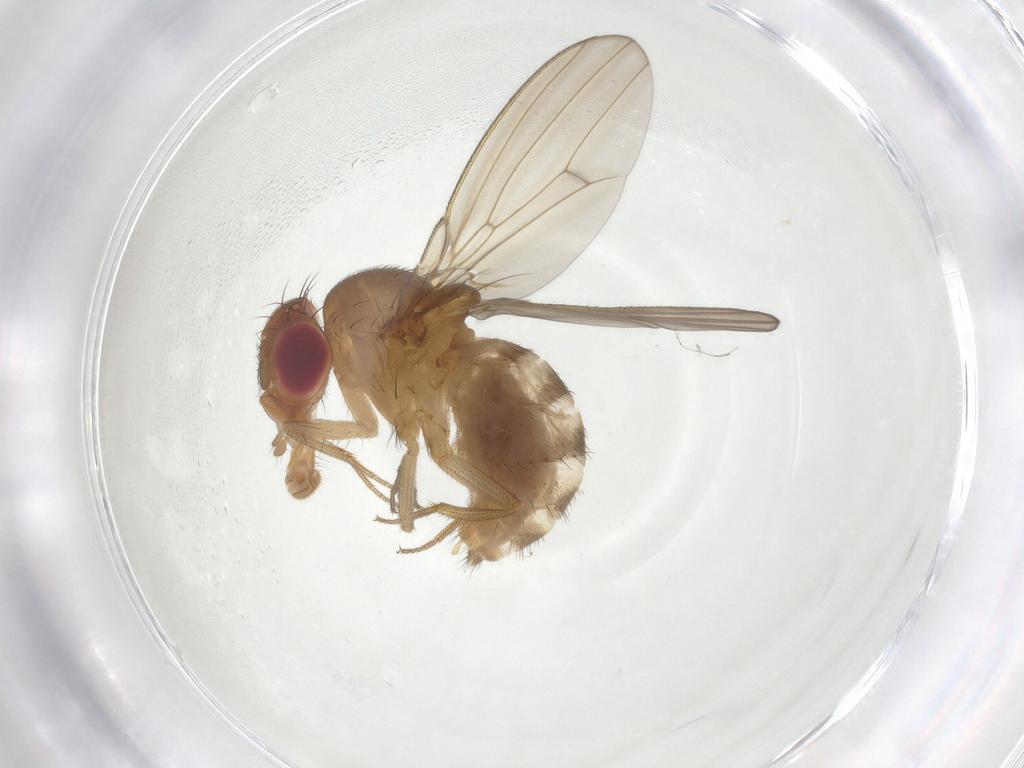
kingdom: Animalia
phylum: Arthropoda
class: Insecta
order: Diptera
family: Drosophilidae
